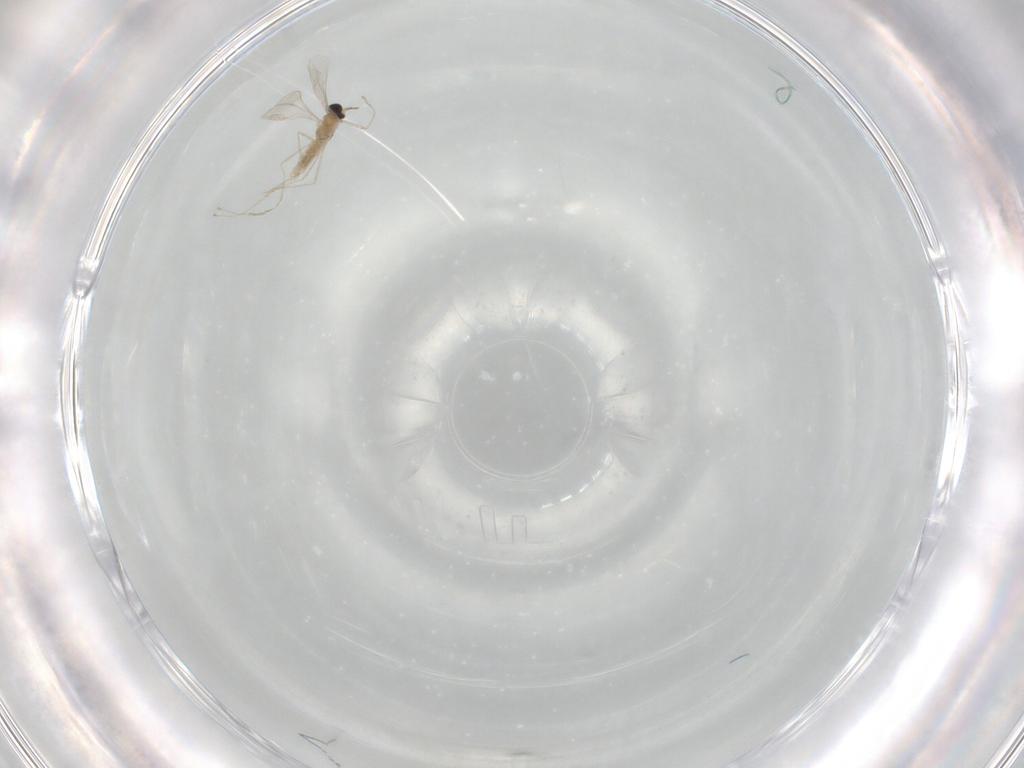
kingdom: Animalia
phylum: Arthropoda
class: Insecta
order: Diptera
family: Cecidomyiidae
